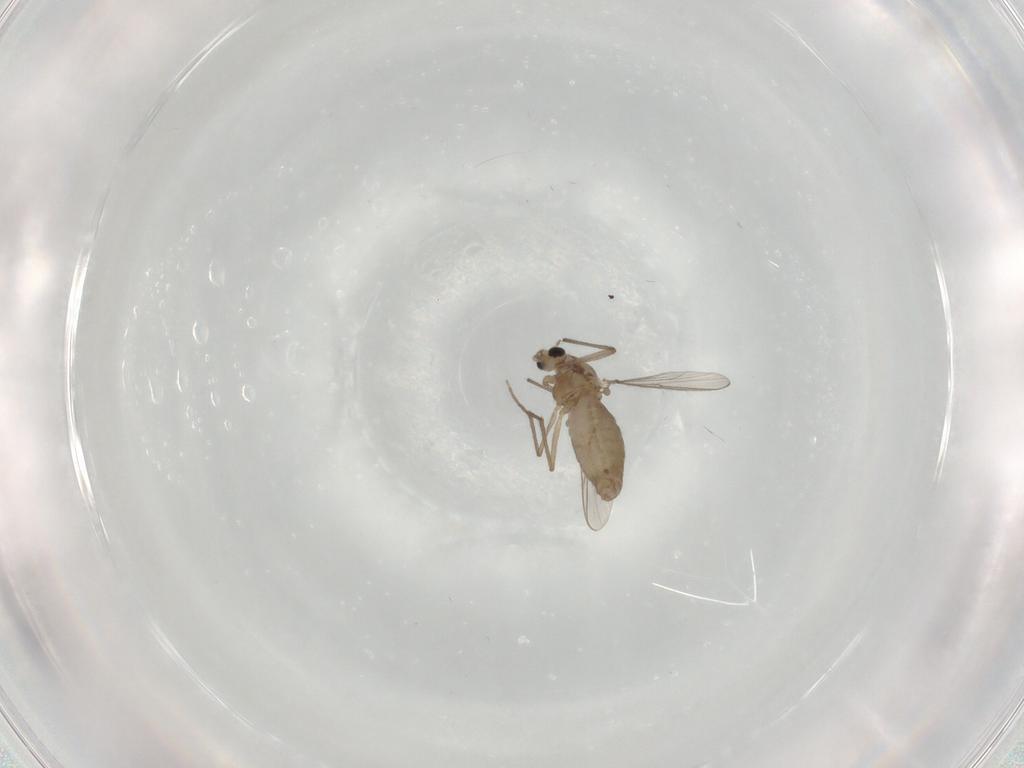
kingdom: Animalia
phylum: Arthropoda
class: Insecta
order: Diptera
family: Chironomidae
